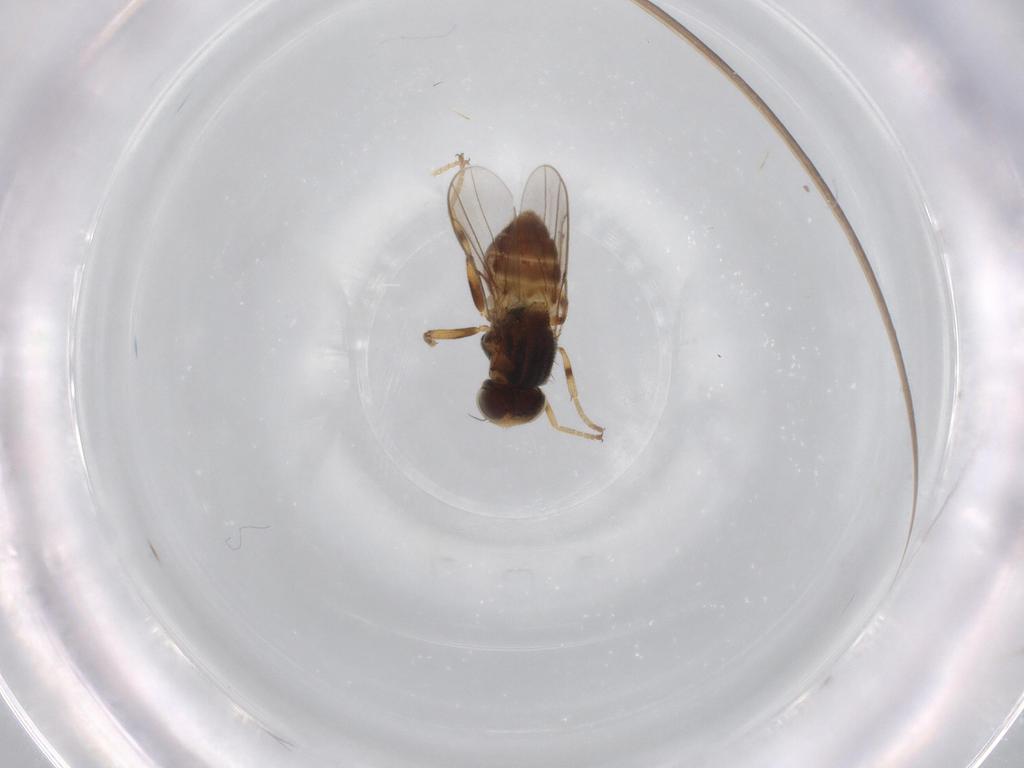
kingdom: Animalia
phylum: Arthropoda
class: Insecta
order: Diptera
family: Chloropidae
